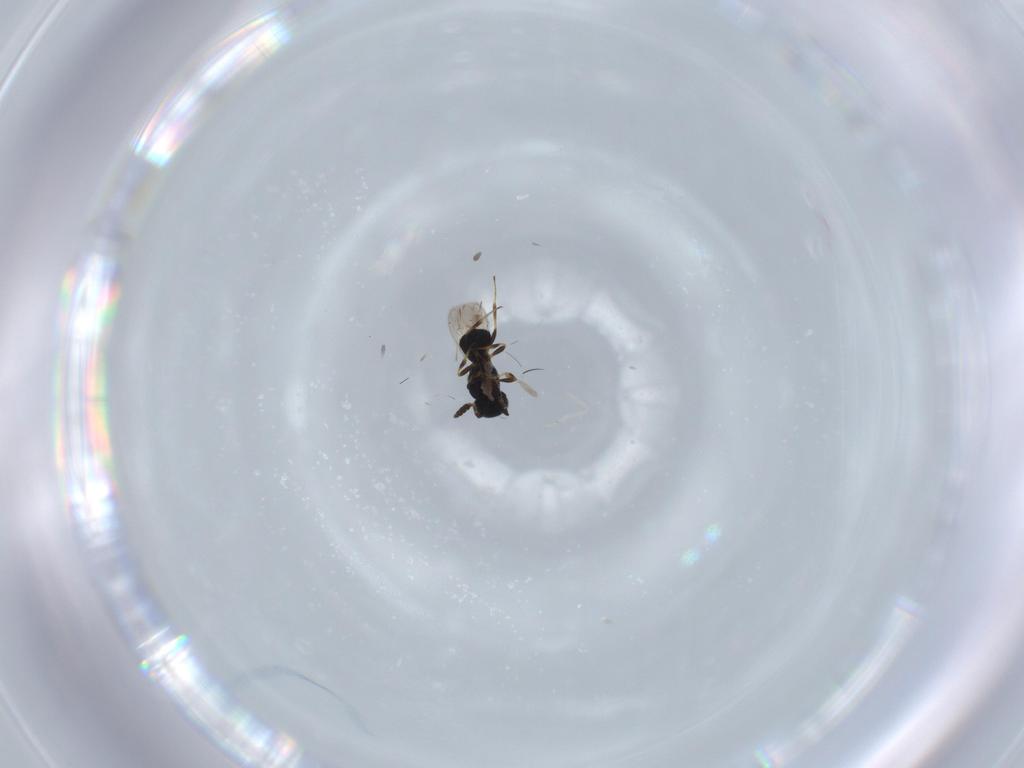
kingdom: Animalia
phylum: Arthropoda
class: Insecta
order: Hymenoptera
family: Scelionidae
